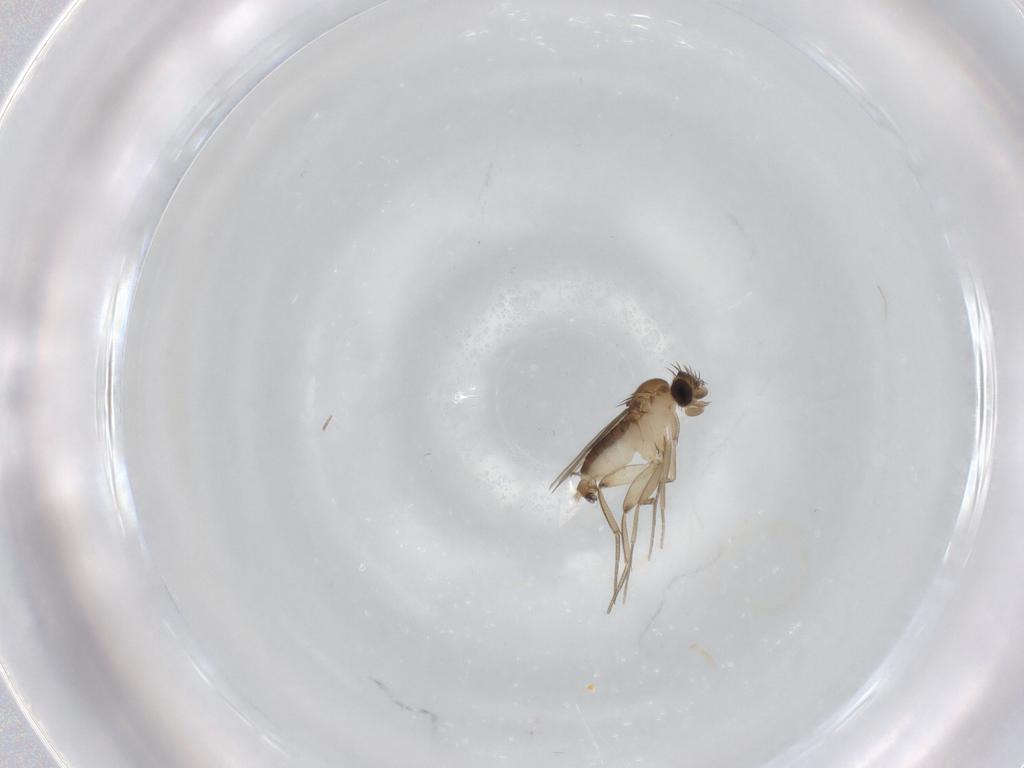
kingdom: Animalia
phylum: Arthropoda
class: Insecta
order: Diptera
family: Phoridae
